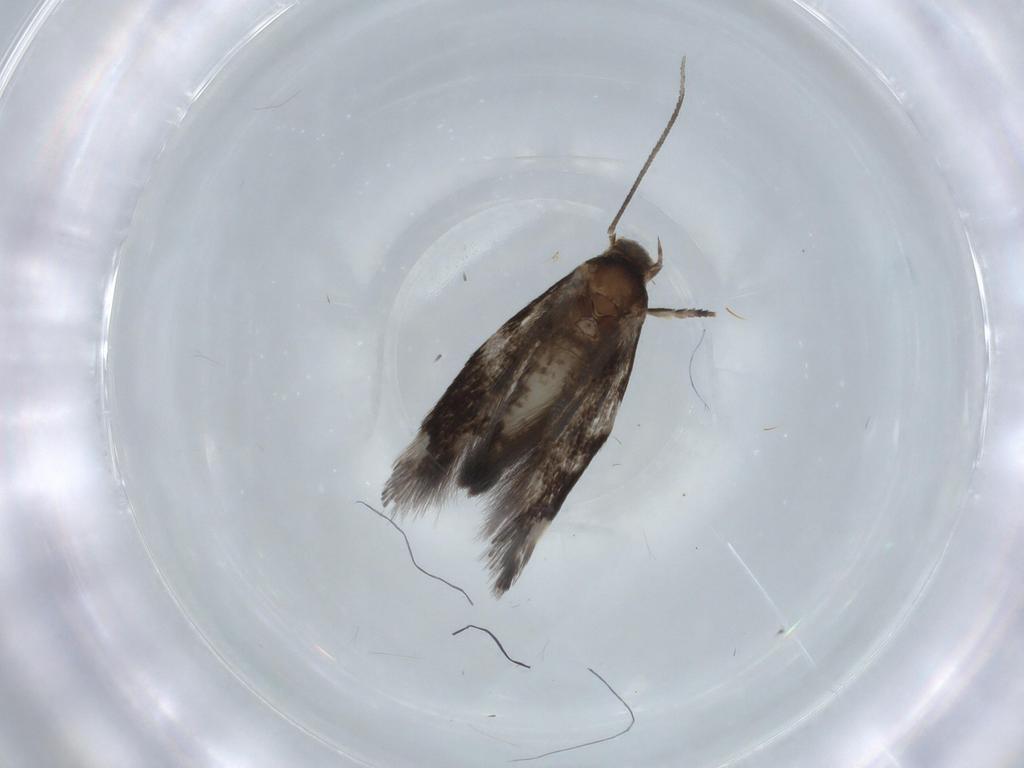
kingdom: Animalia
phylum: Arthropoda
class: Insecta
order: Lepidoptera
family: Cosmopterigidae
